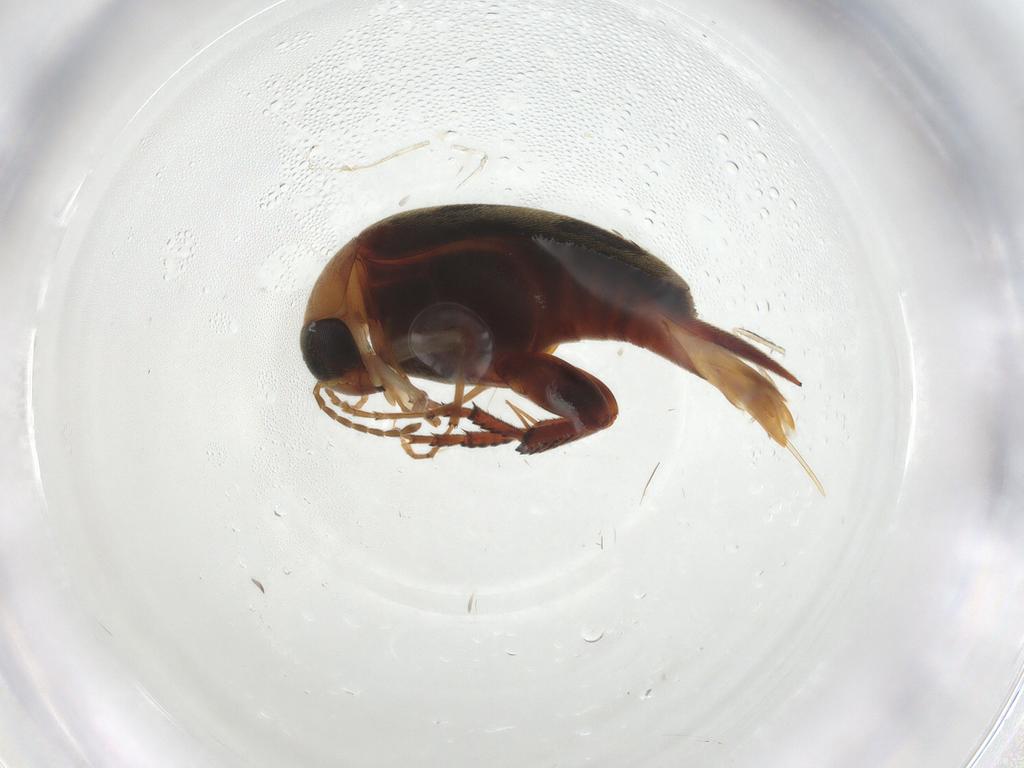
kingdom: Animalia
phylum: Arthropoda
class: Insecta
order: Coleoptera
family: Mordellidae
